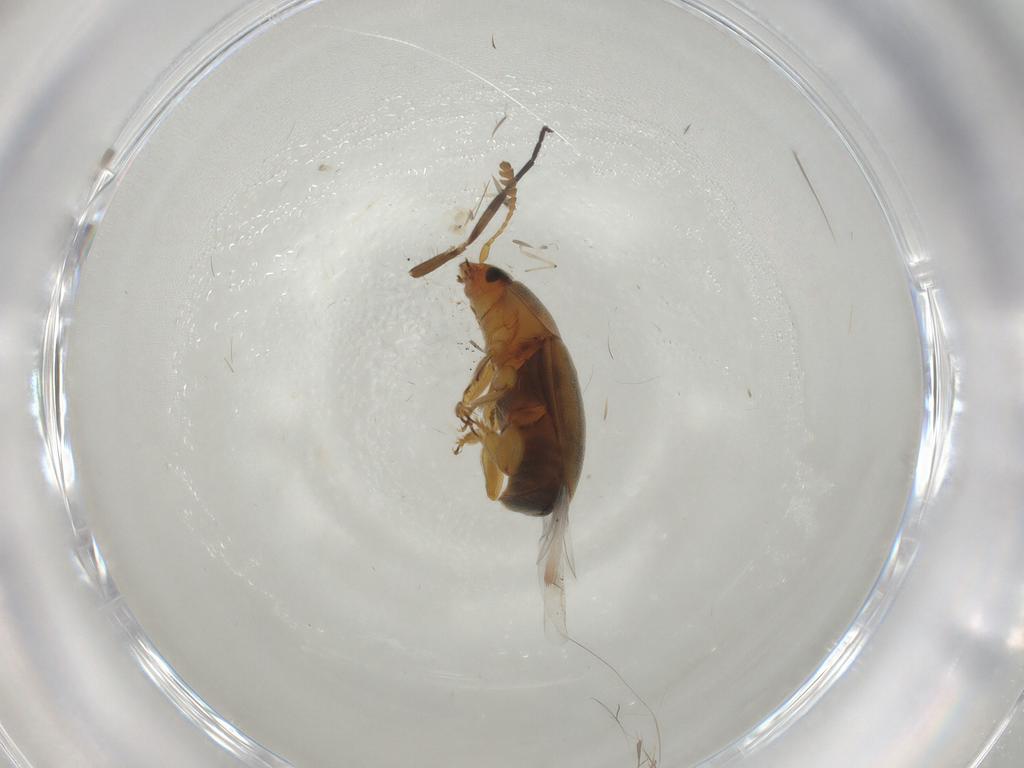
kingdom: Animalia
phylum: Arthropoda
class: Insecta
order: Coleoptera
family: Nitidulidae
